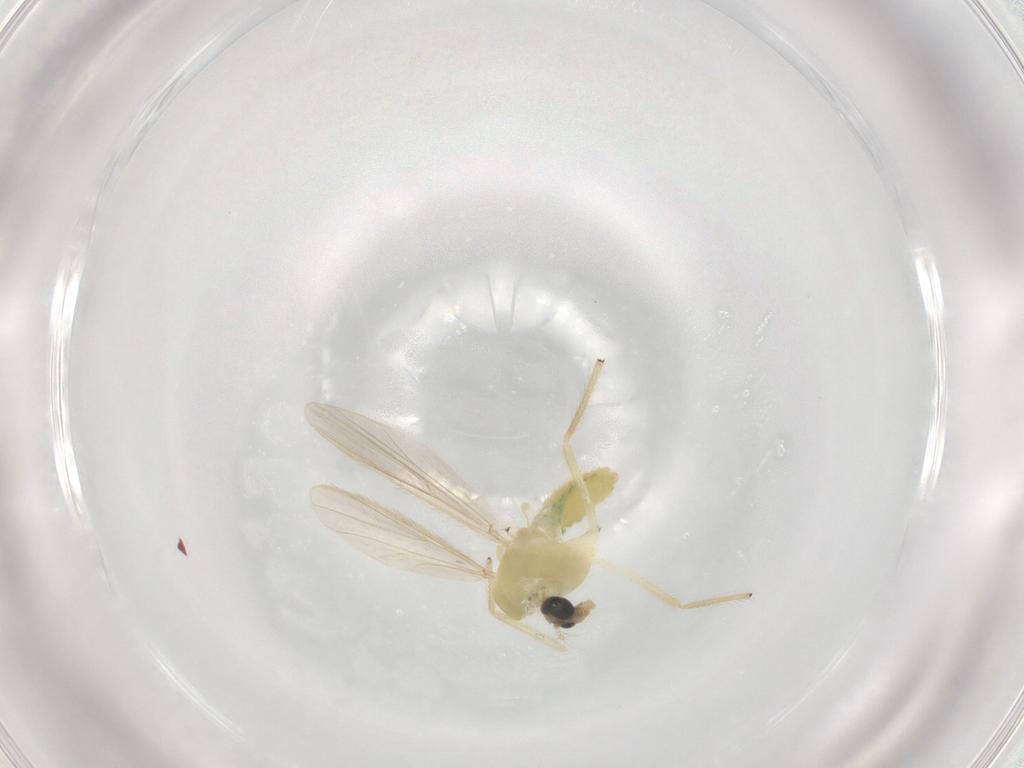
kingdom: Animalia
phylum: Arthropoda
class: Insecta
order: Diptera
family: Chironomidae
